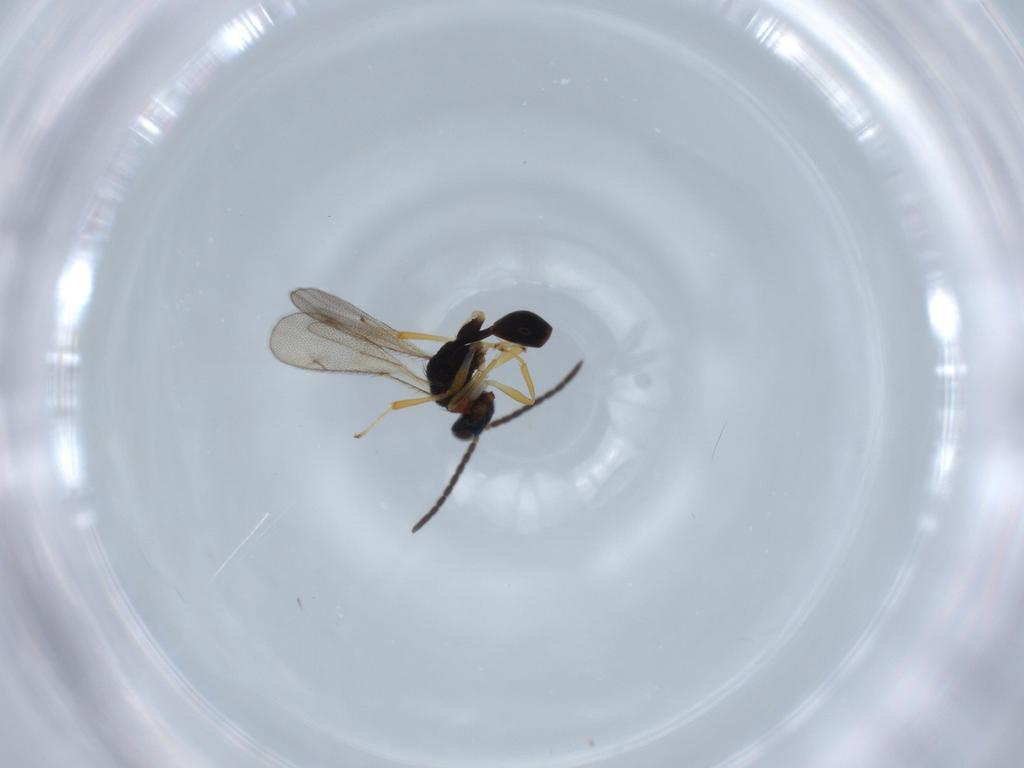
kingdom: Animalia
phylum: Arthropoda
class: Insecta
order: Hymenoptera
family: Diparidae
